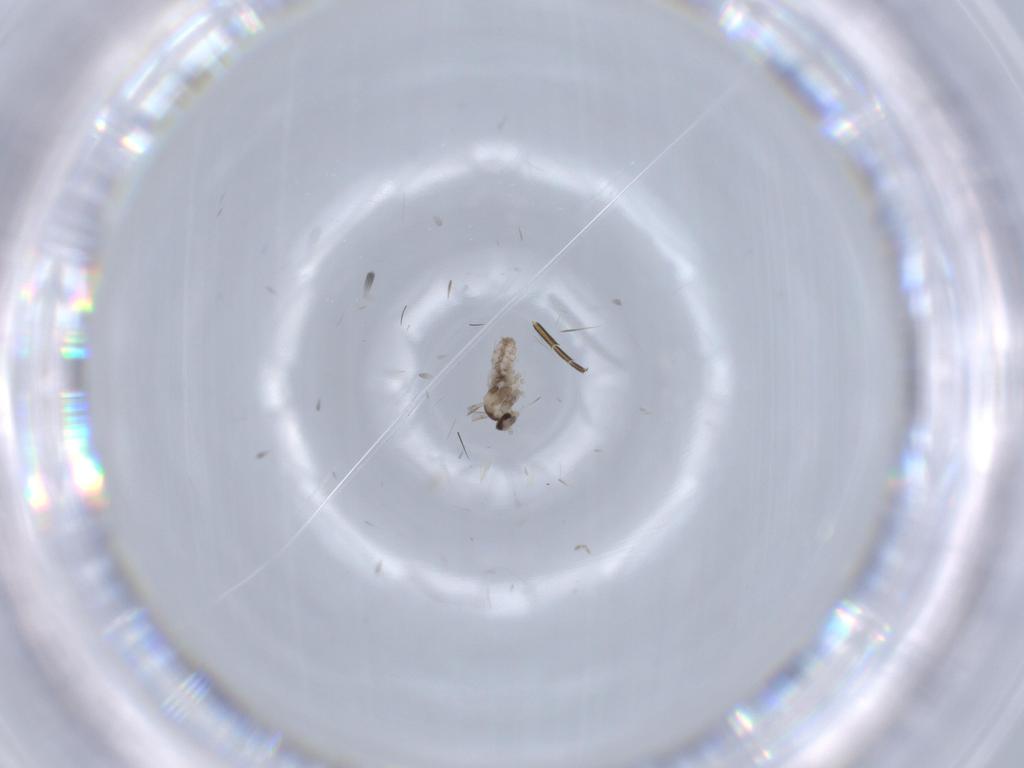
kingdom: Animalia
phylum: Arthropoda
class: Insecta
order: Diptera
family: Cecidomyiidae
